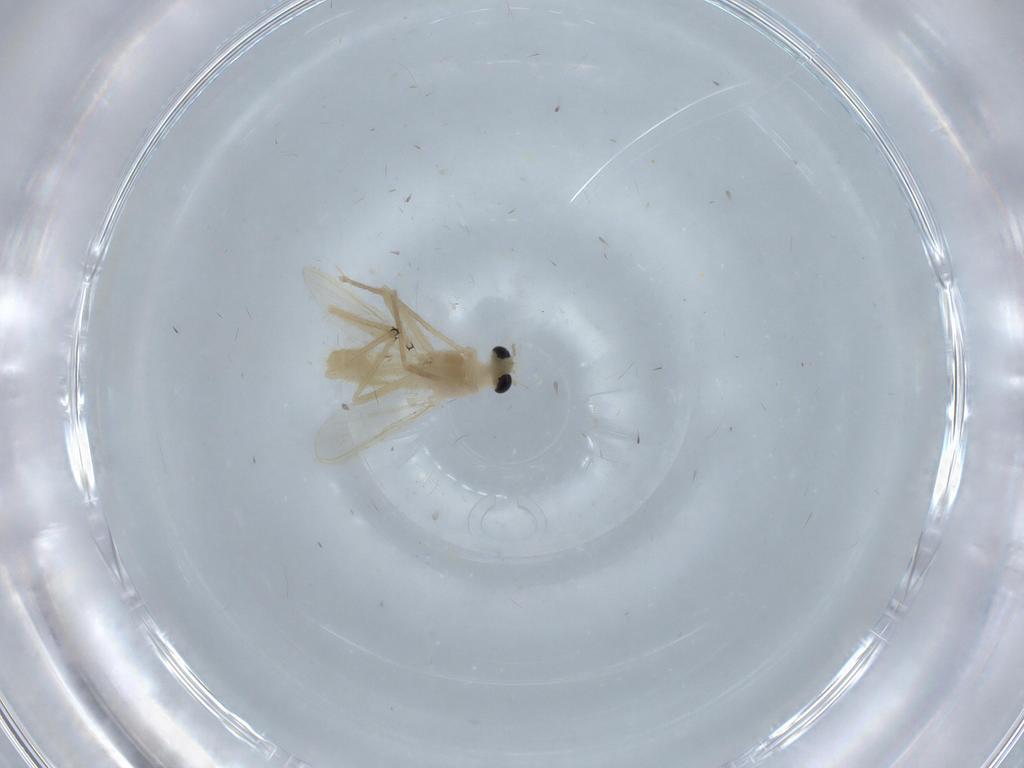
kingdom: Animalia
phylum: Arthropoda
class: Insecta
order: Diptera
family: Chironomidae
